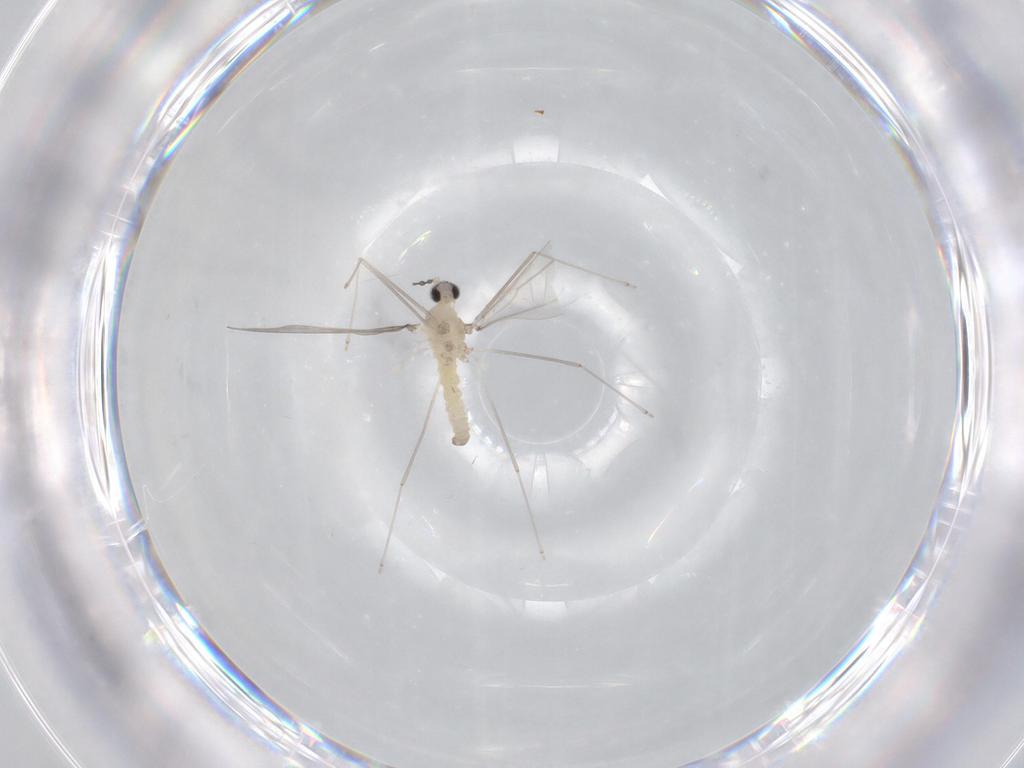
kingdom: Animalia
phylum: Arthropoda
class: Insecta
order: Diptera
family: Cecidomyiidae
